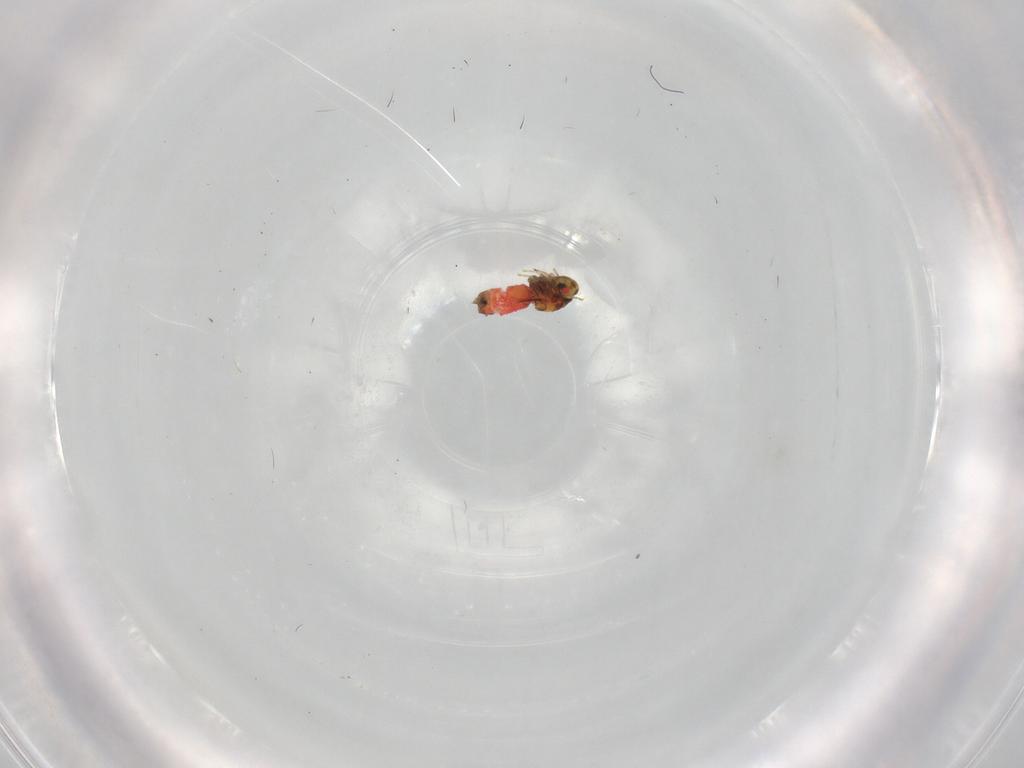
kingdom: Animalia
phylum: Arthropoda
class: Insecta
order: Hemiptera
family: Aleyrodidae
